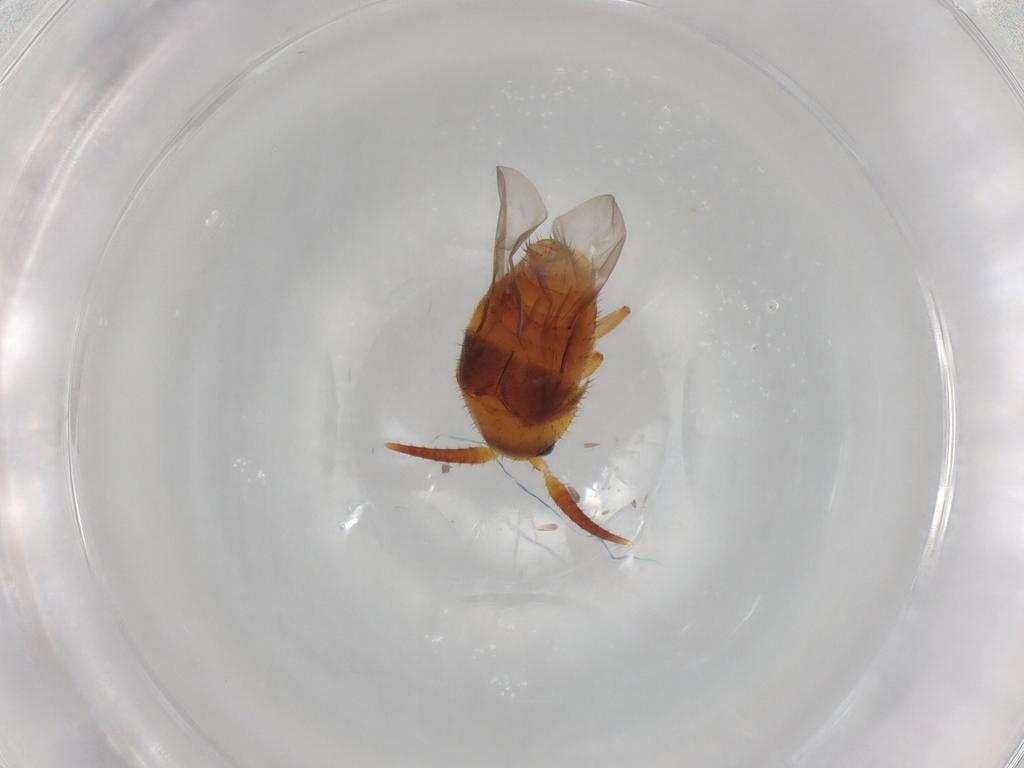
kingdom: Animalia
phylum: Arthropoda
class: Insecta
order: Coleoptera
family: Staphylinidae
